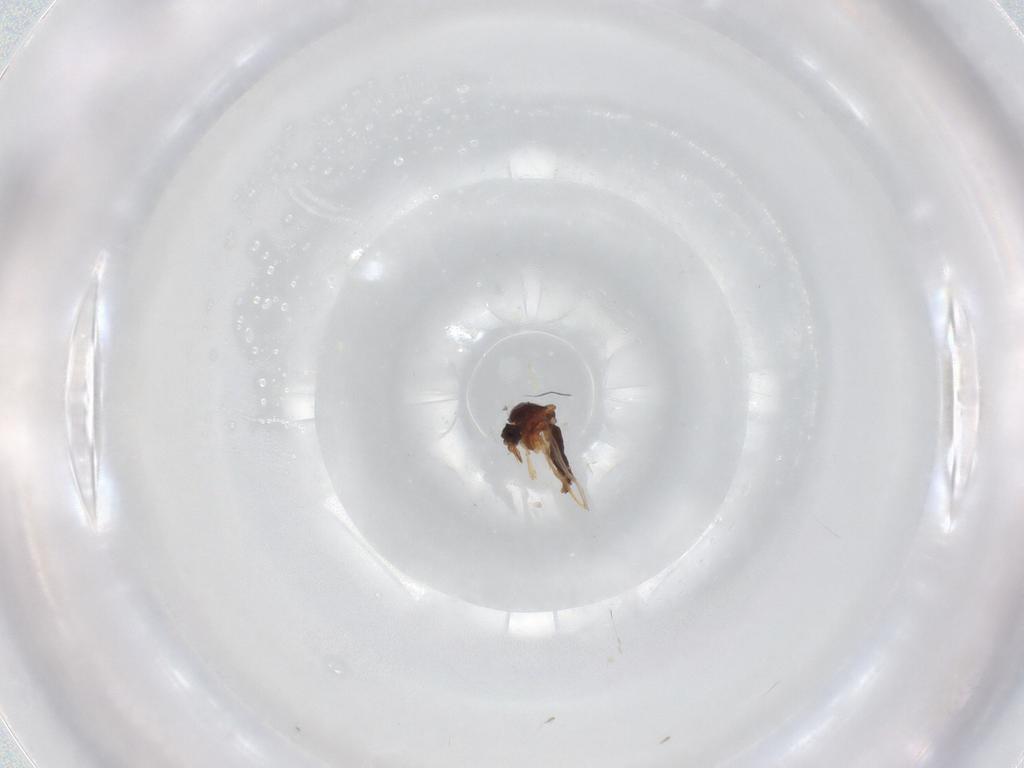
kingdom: Animalia
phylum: Arthropoda
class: Insecta
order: Diptera
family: Ceratopogonidae
